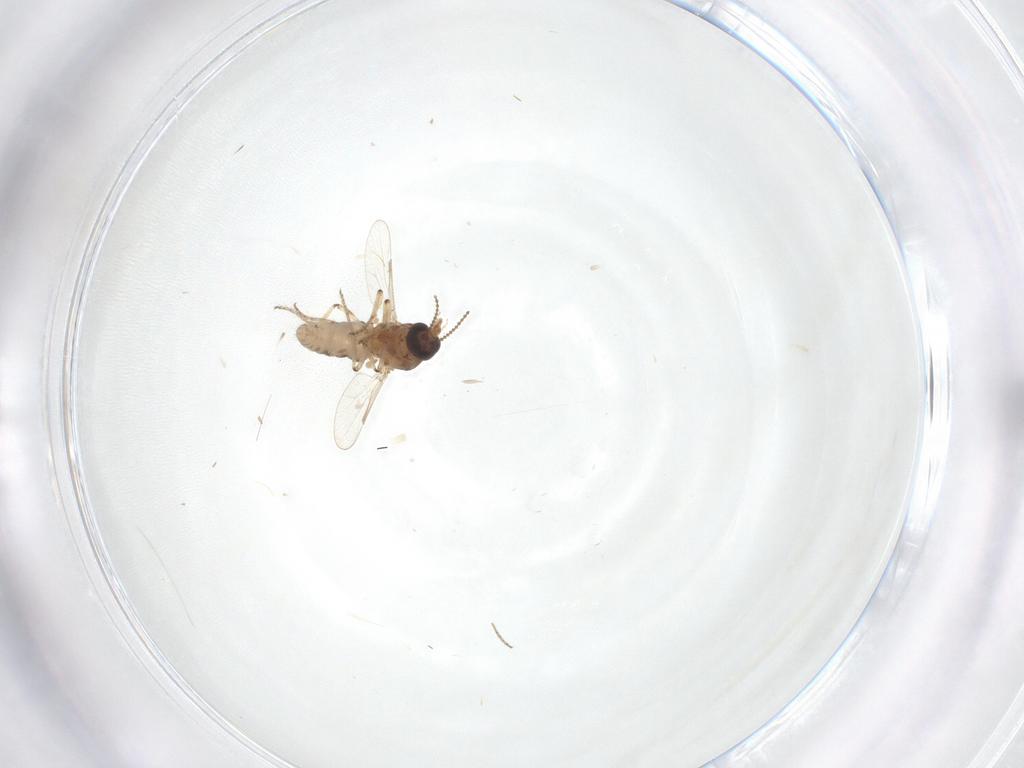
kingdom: Animalia
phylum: Arthropoda
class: Insecta
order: Diptera
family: Ceratopogonidae
